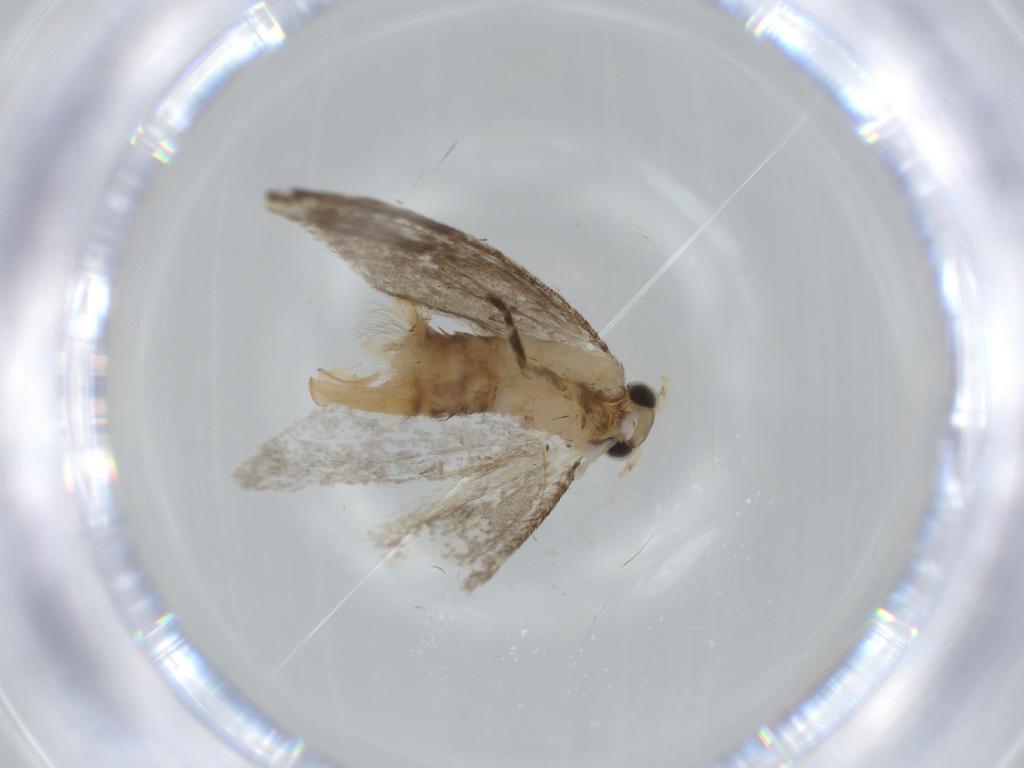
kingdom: Animalia
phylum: Arthropoda
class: Insecta
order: Lepidoptera
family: Tineidae
